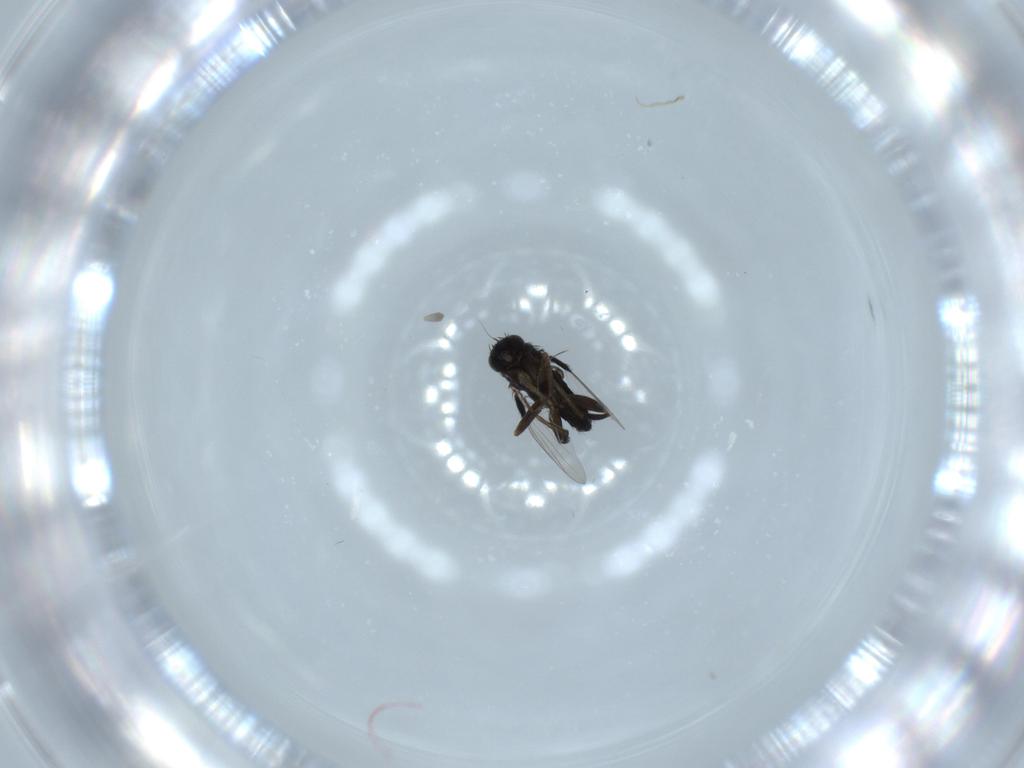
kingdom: Animalia
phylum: Arthropoda
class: Insecta
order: Diptera
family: Phoridae
